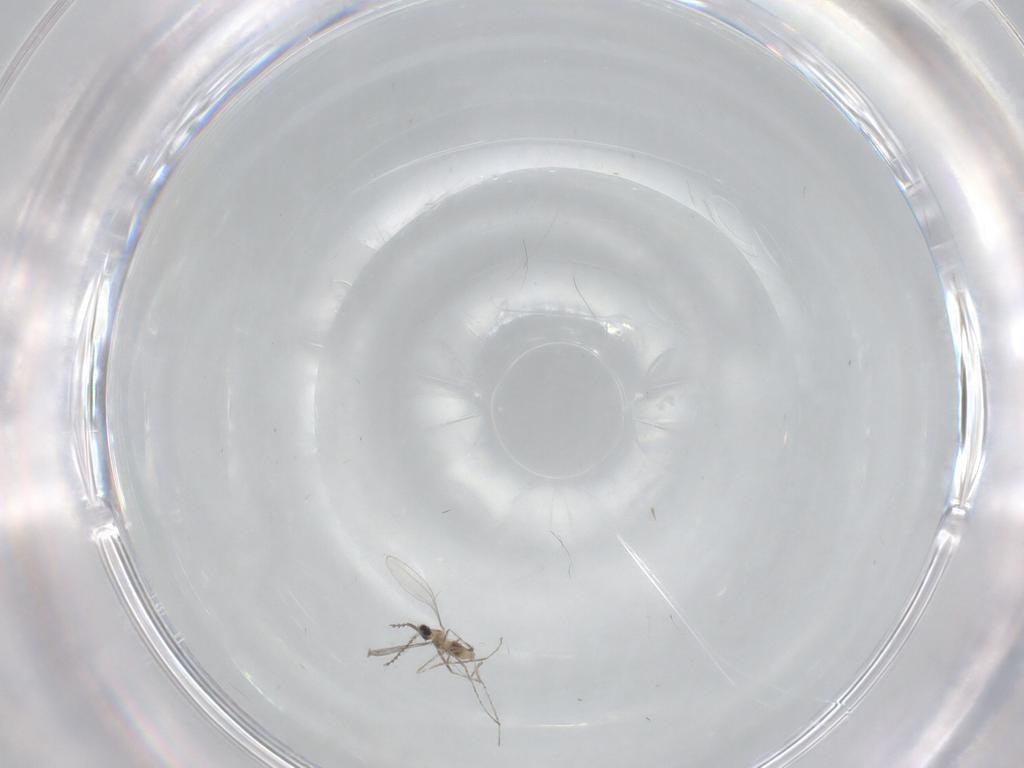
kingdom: Animalia
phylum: Arthropoda
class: Insecta
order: Diptera
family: Cecidomyiidae
